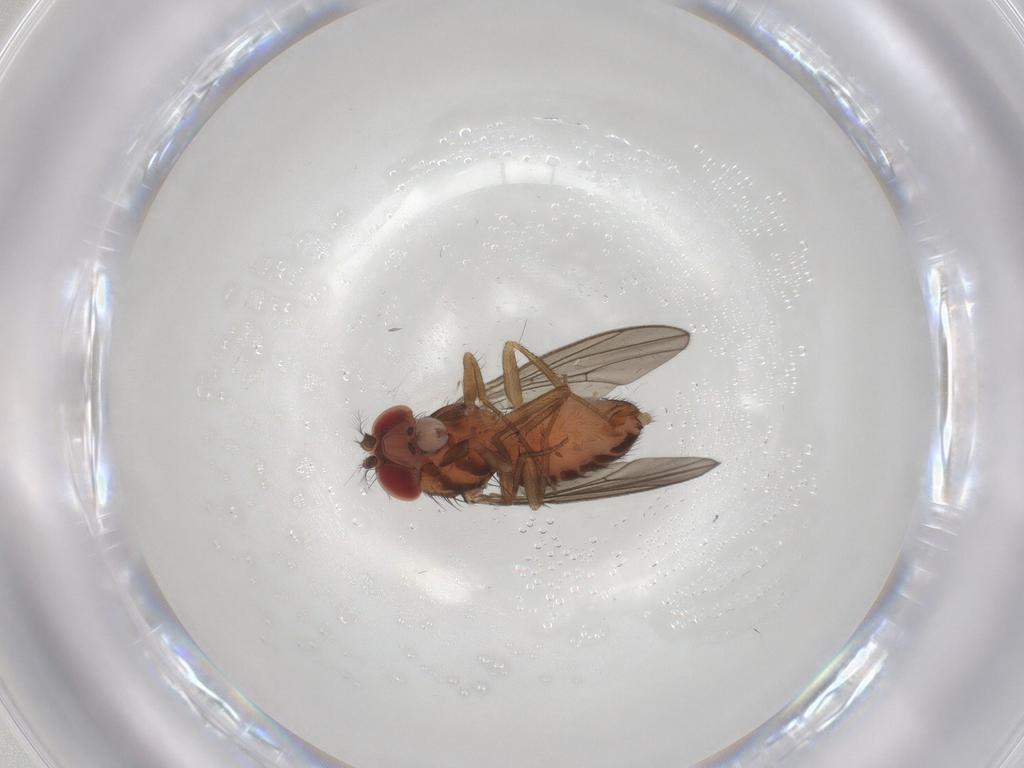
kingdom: Animalia
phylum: Arthropoda
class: Insecta
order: Diptera
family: Drosophilidae
